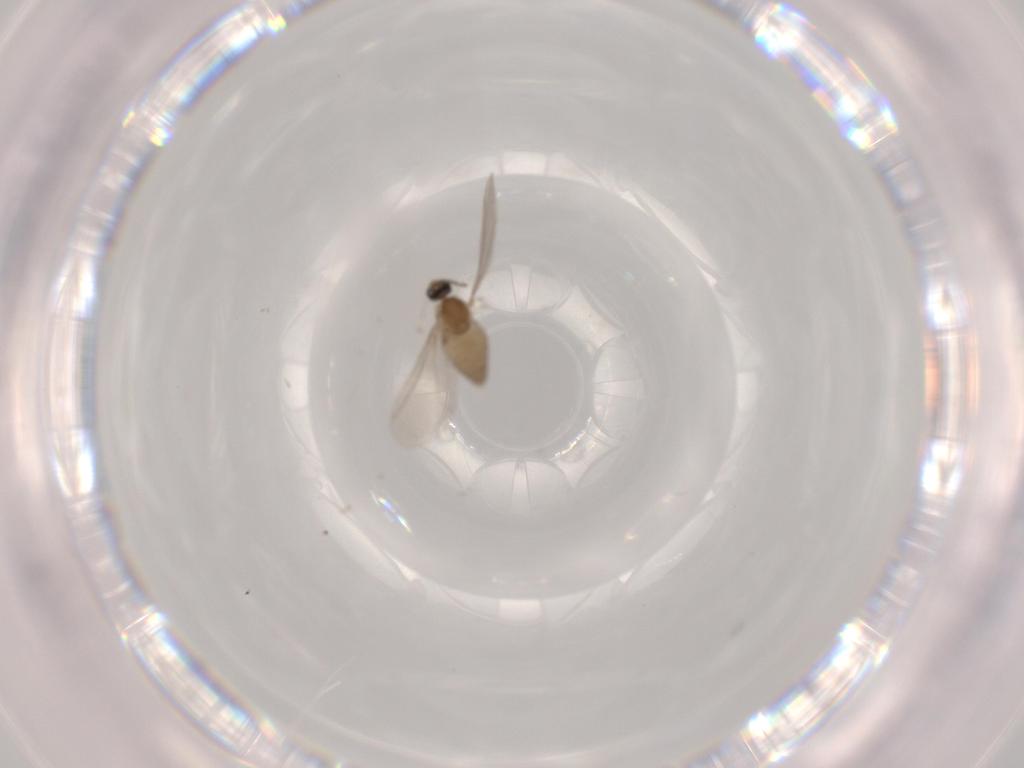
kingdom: Animalia
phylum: Arthropoda
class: Insecta
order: Diptera
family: Cecidomyiidae
